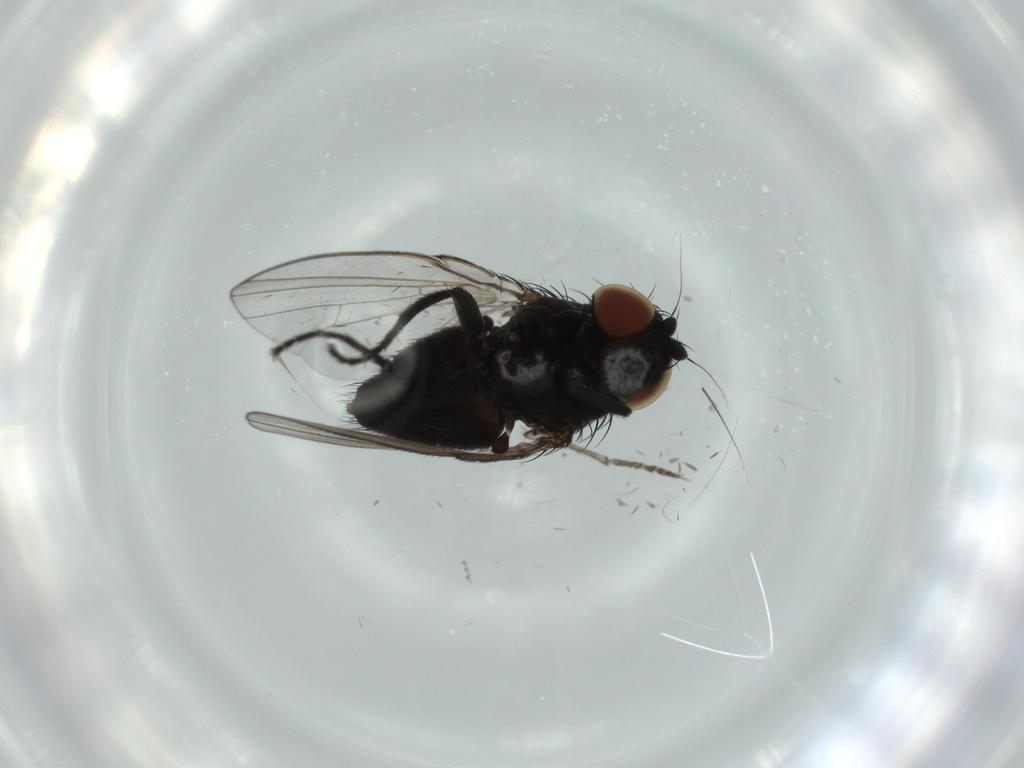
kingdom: Animalia
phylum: Arthropoda
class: Insecta
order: Diptera
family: Milichiidae
